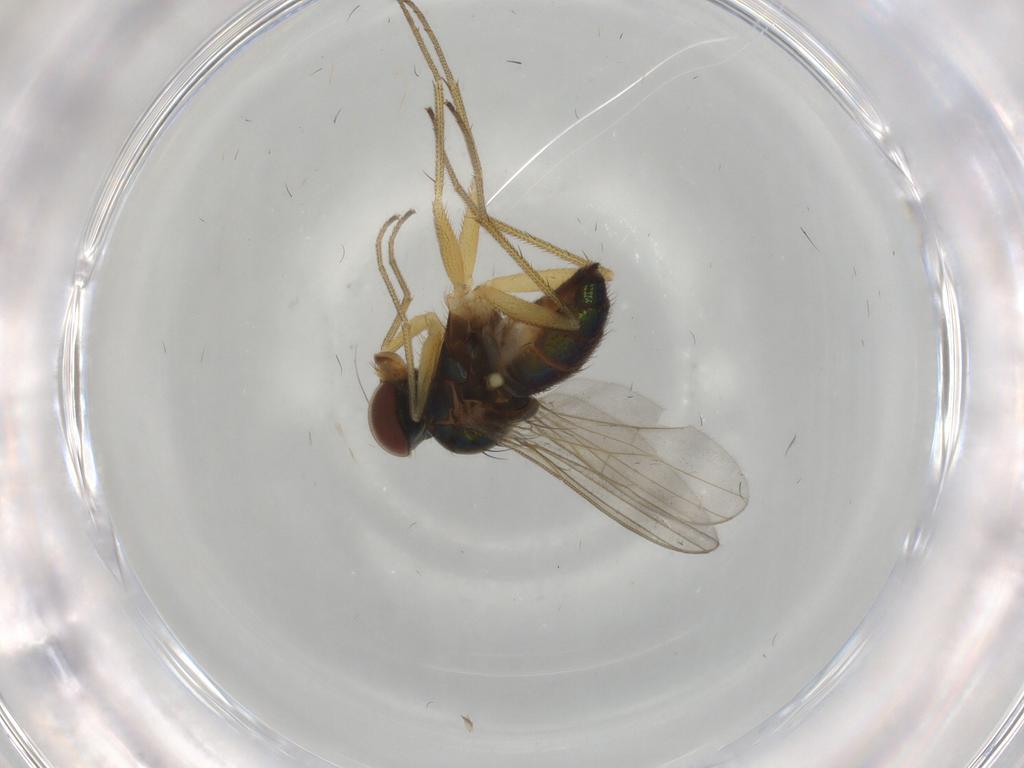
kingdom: Animalia
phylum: Arthropoda
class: Insecta
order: Diptera
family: Dolichopodidae
